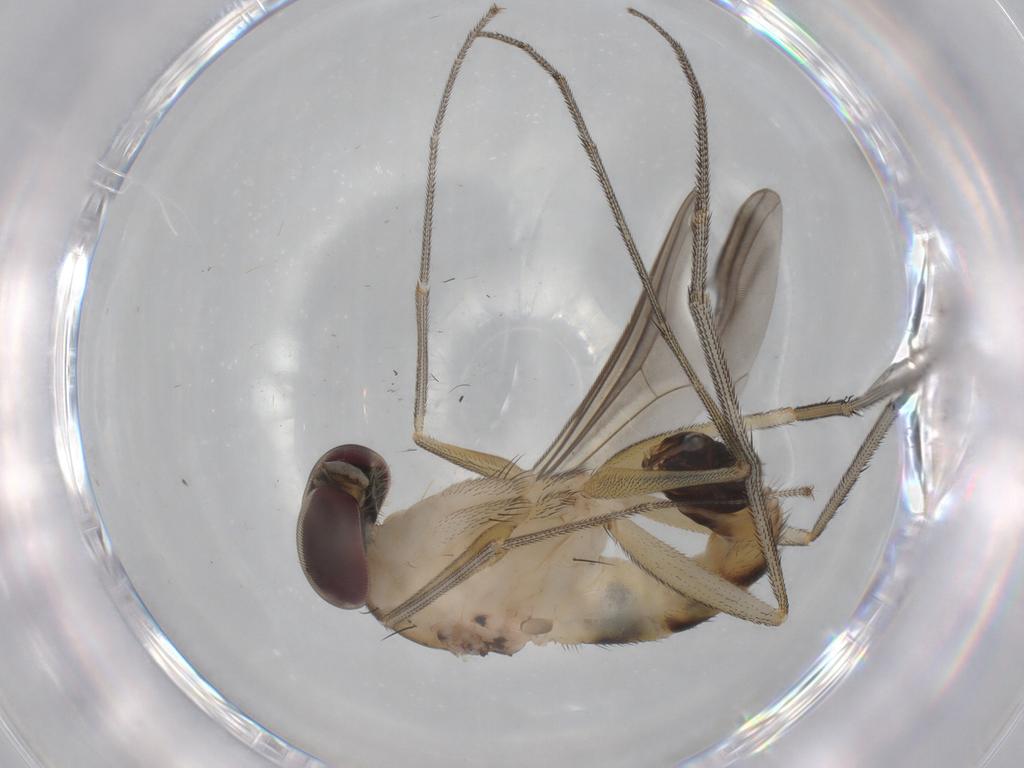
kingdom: Animalia
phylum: Arthropoda
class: Insecta
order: Diptera
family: Dolichopodidae
